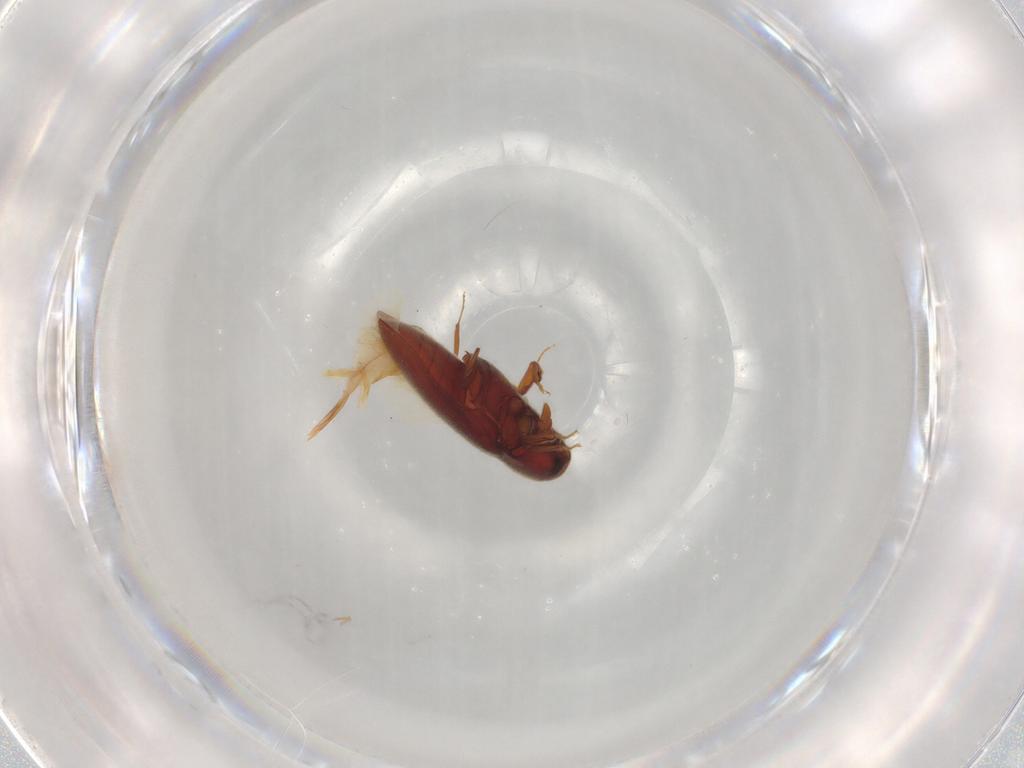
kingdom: Animalia
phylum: Arthropoda
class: Insecta
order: Coleoptera
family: Throscidae
